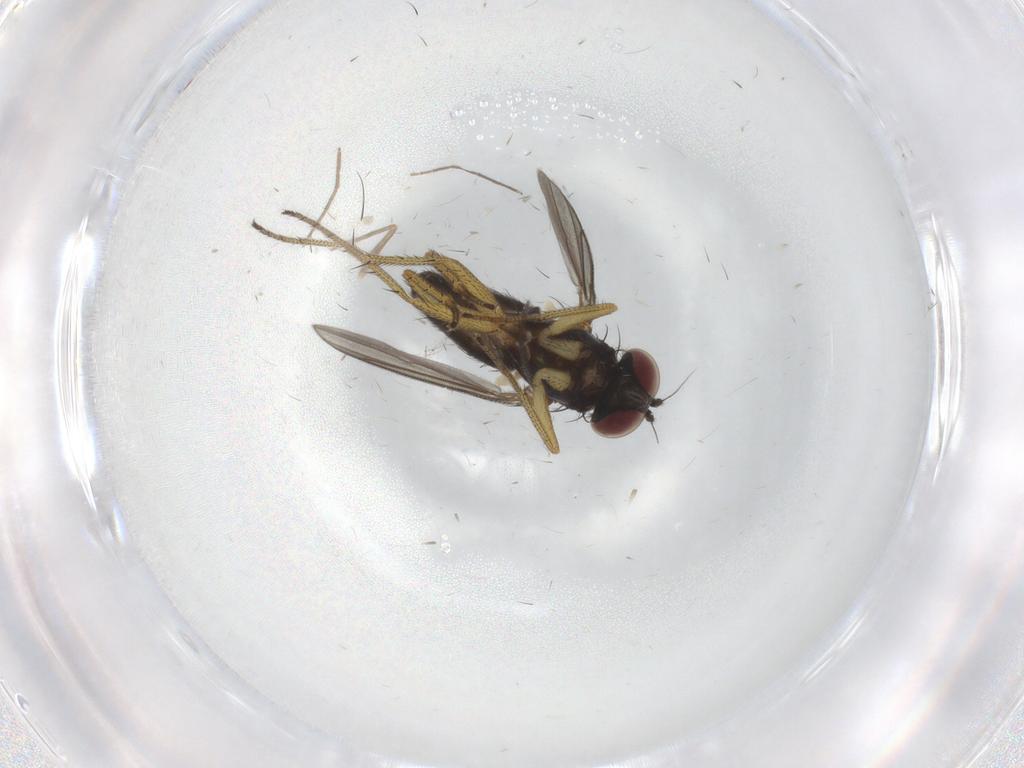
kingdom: Animalia
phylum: Arthropoda
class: Insecta
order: Diptera
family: Sciaridae
